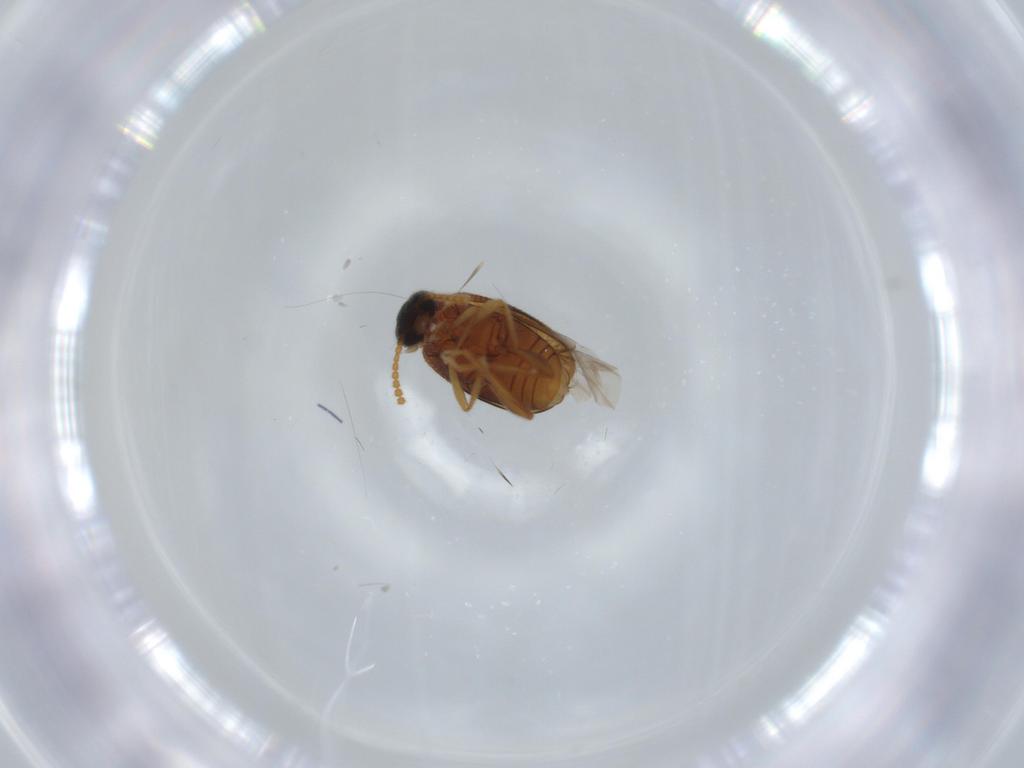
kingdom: Animalia
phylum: Arthropoda
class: Insecta
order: Coleoptera
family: Aderidae
